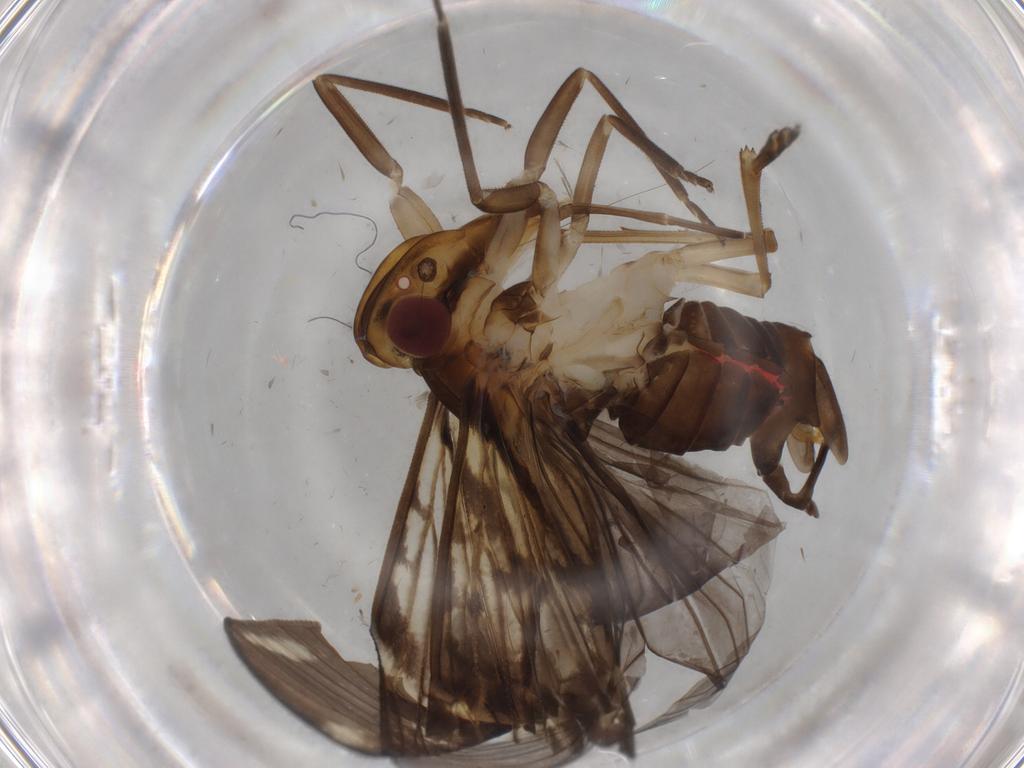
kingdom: Animalia
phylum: Arthropoda
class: Insecta
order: Hemiptera
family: Cixiidae
